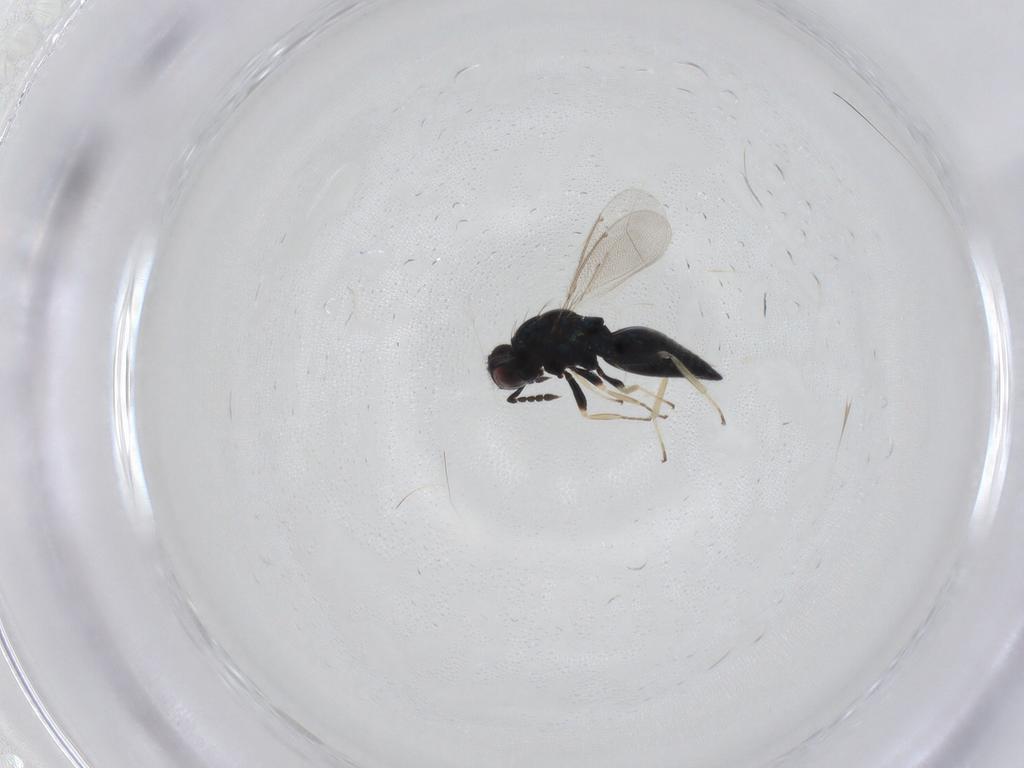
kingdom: Animalia
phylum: Arthropoda
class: Insecta
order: Hymenoptera
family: Eulophidae
